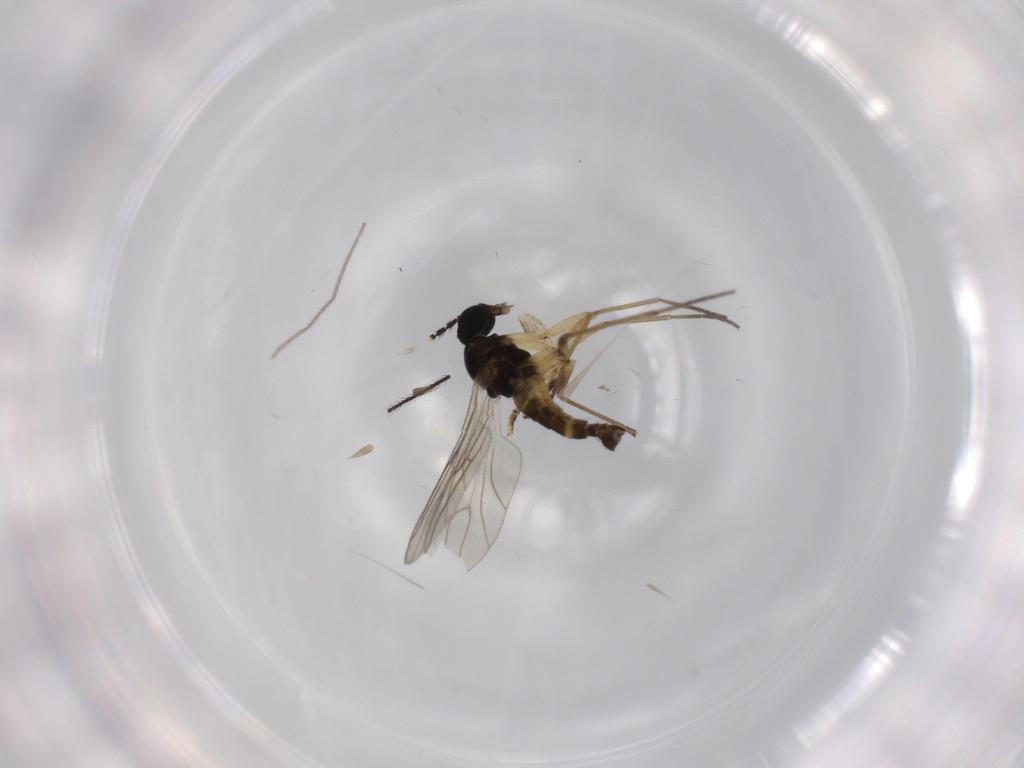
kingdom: Animalia
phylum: Arthropoda
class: Insecta
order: Diptera
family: Sciaridae
